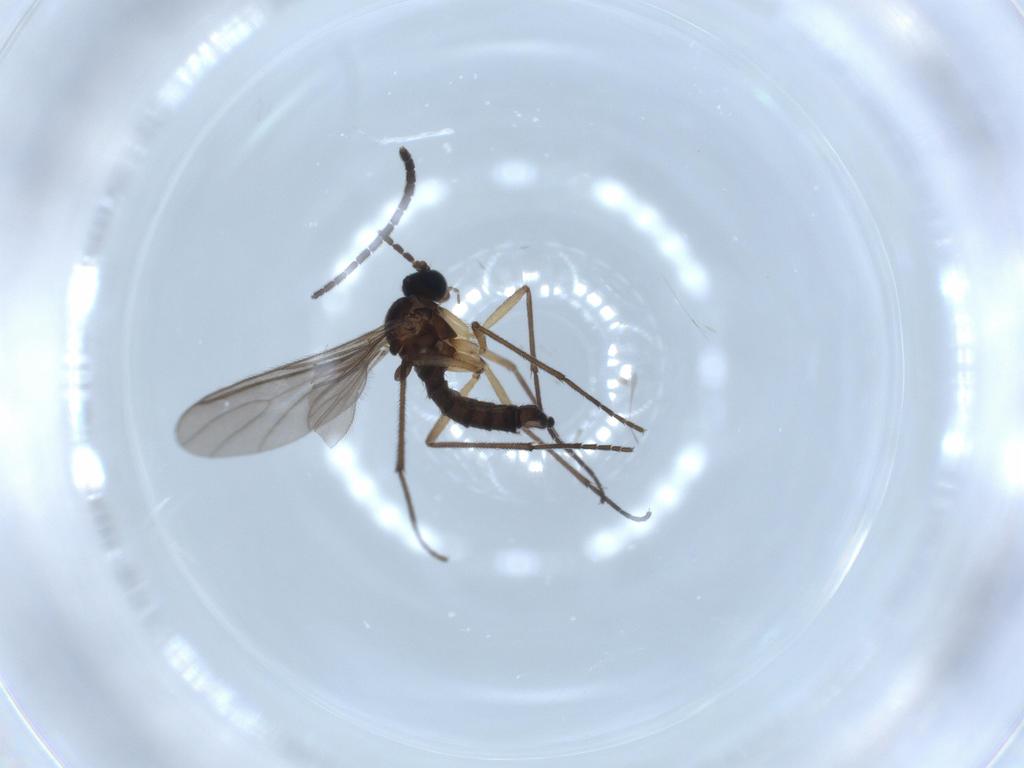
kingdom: Animalia
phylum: Arthropoda
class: Insecta
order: Diptera
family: Sciaridae
